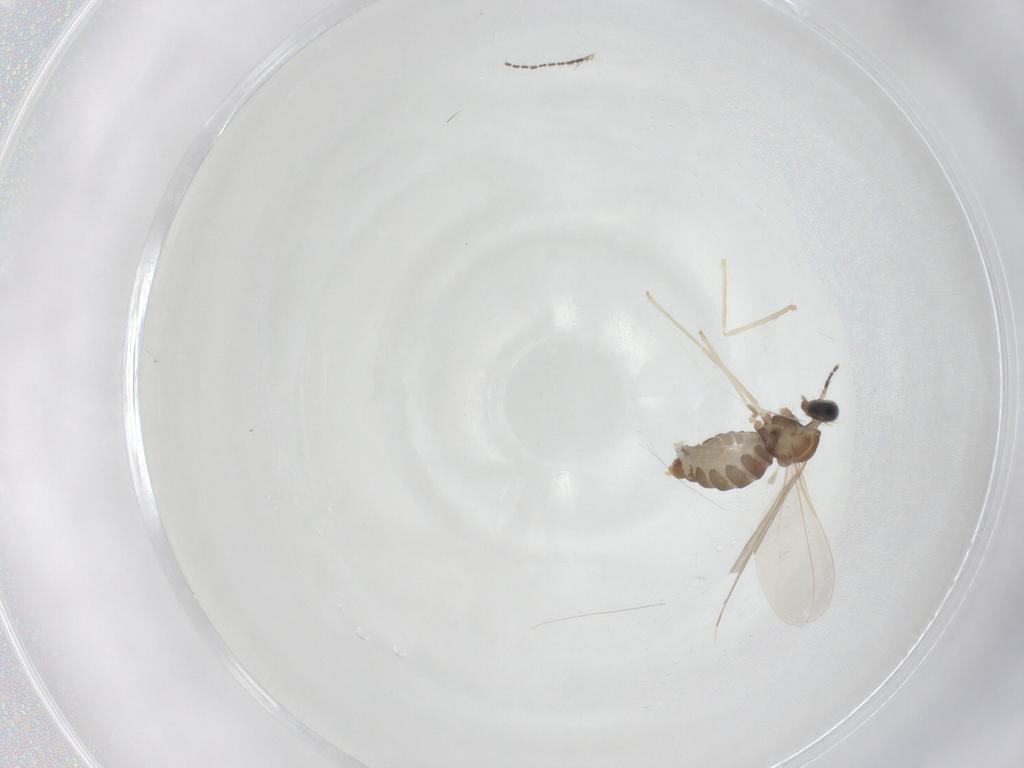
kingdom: Animalia
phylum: Arthropoda
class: Insecta
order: Diptera
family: Cecidomyiidae
